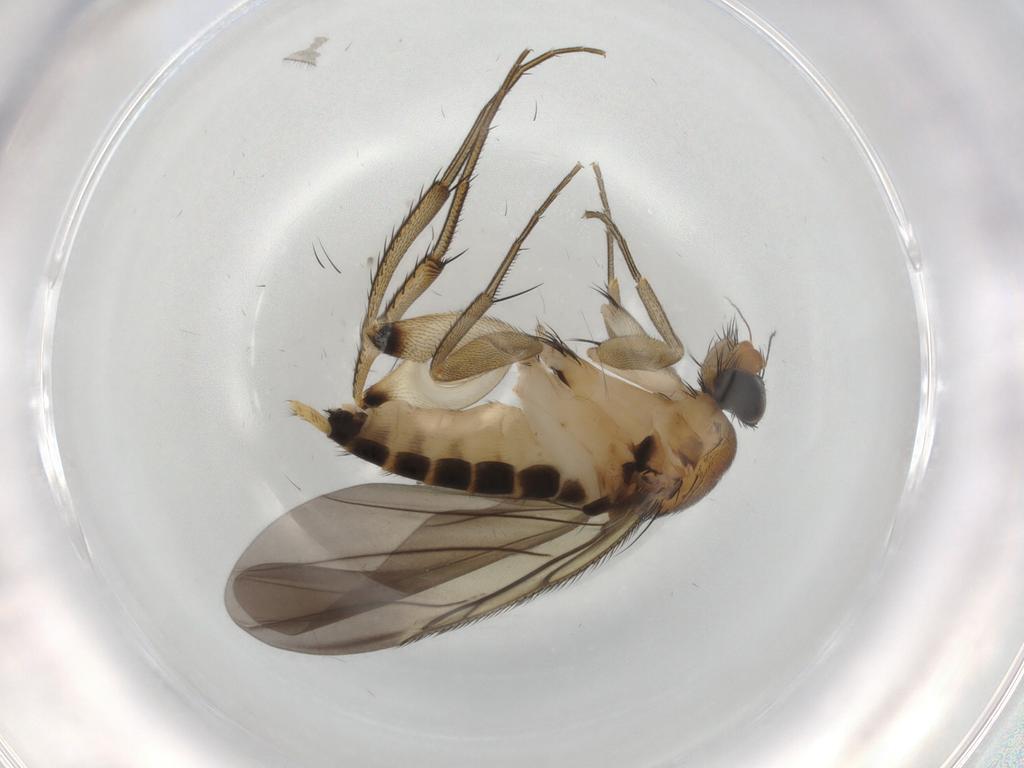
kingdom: Animalia
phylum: Arthropoda
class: Insecta
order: Diptera
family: Phoridae
